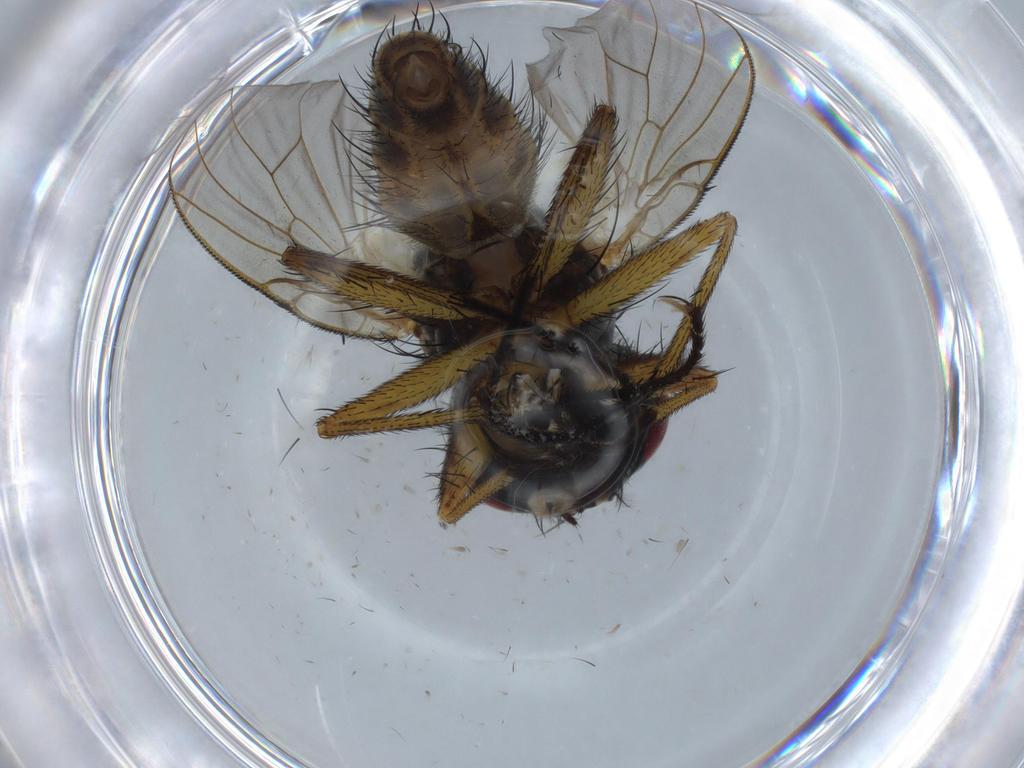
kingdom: Animalia
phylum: Arthropoda
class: Insecta
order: Diptera
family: Muscidae
